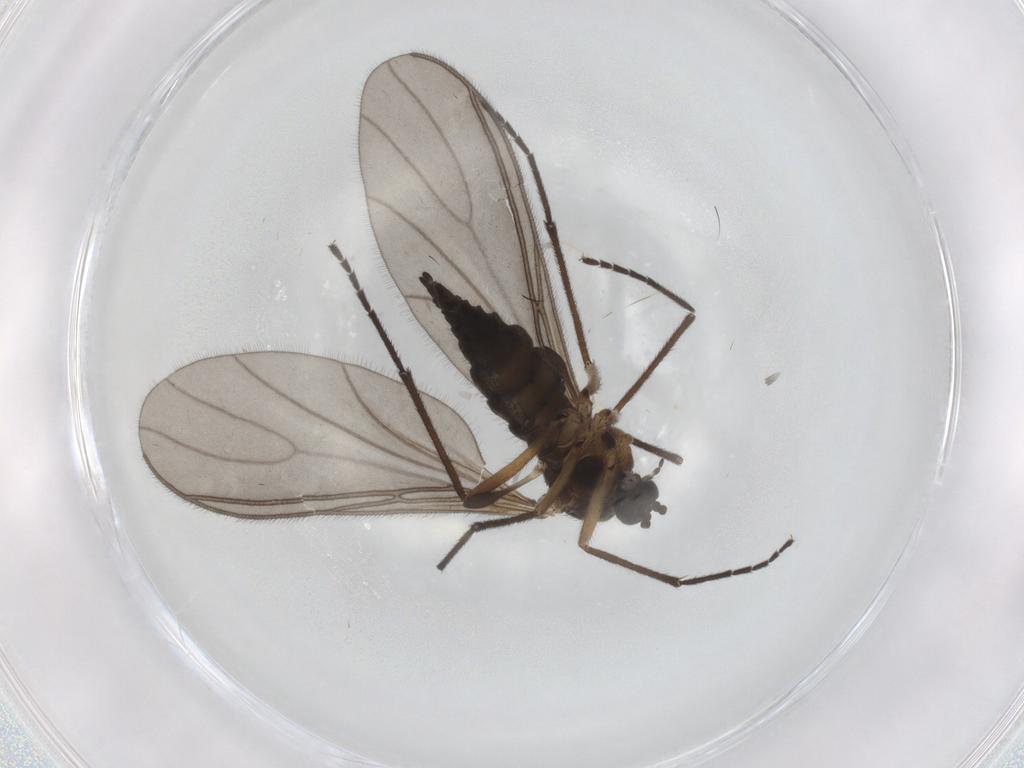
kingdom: Animalia
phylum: Arthropoda
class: Insecta
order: Diptera
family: Sciaridae
